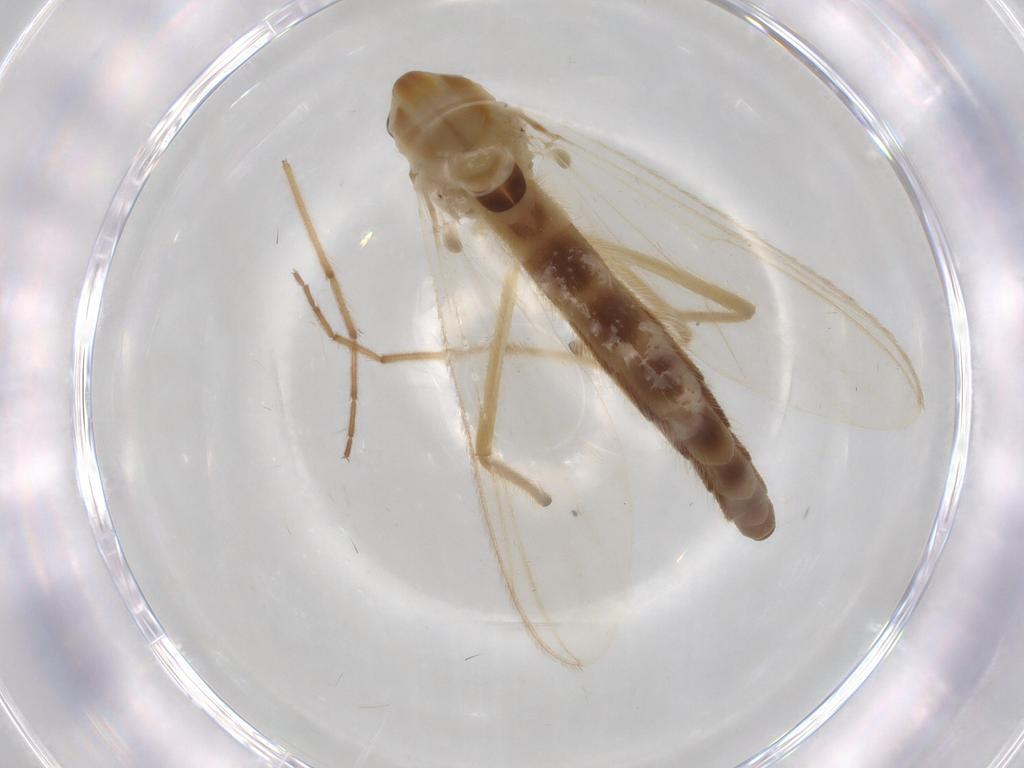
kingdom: Animalia
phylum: Arthropoda
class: Insecta
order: Diptera
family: Chironomidae
